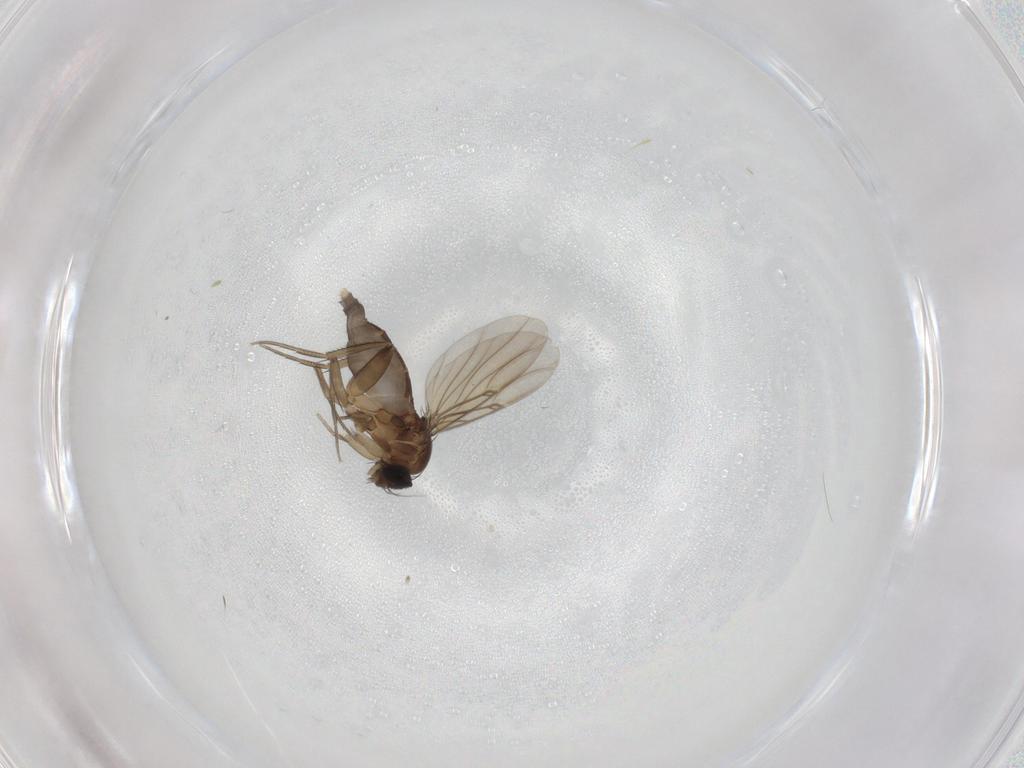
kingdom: Animalia
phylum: Arthropoda
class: Insecta
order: Diptera
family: Phoridae
